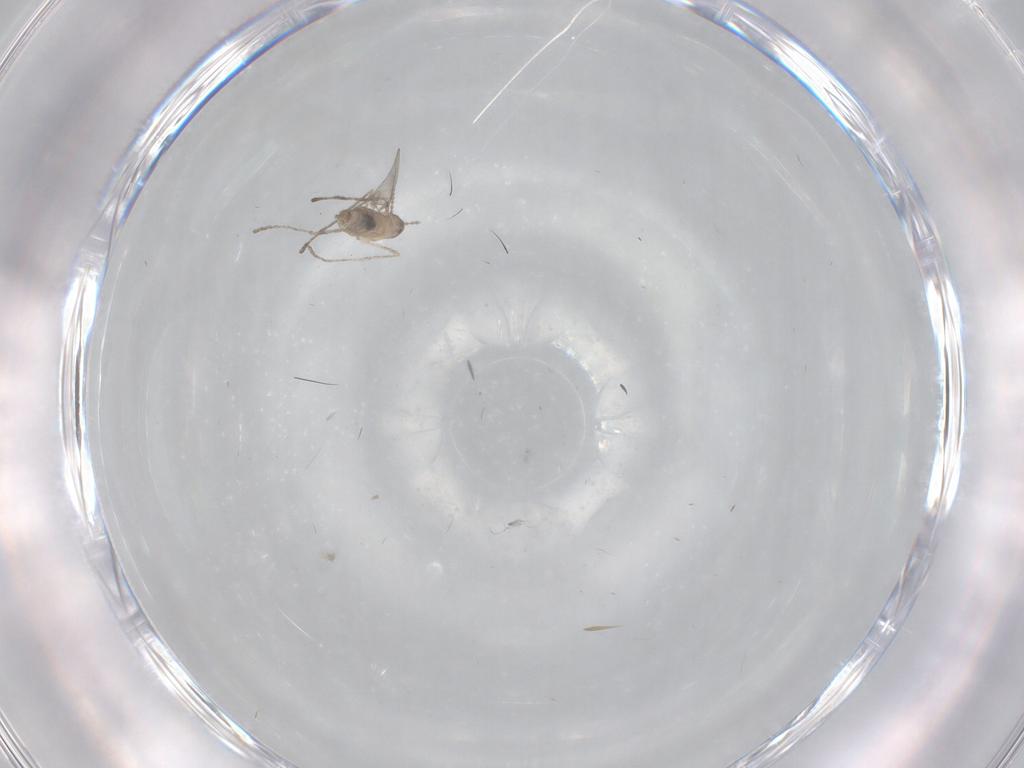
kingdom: Animalia
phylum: Arthropoda
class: Insecta
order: Diptera
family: Cecidomyiidae
